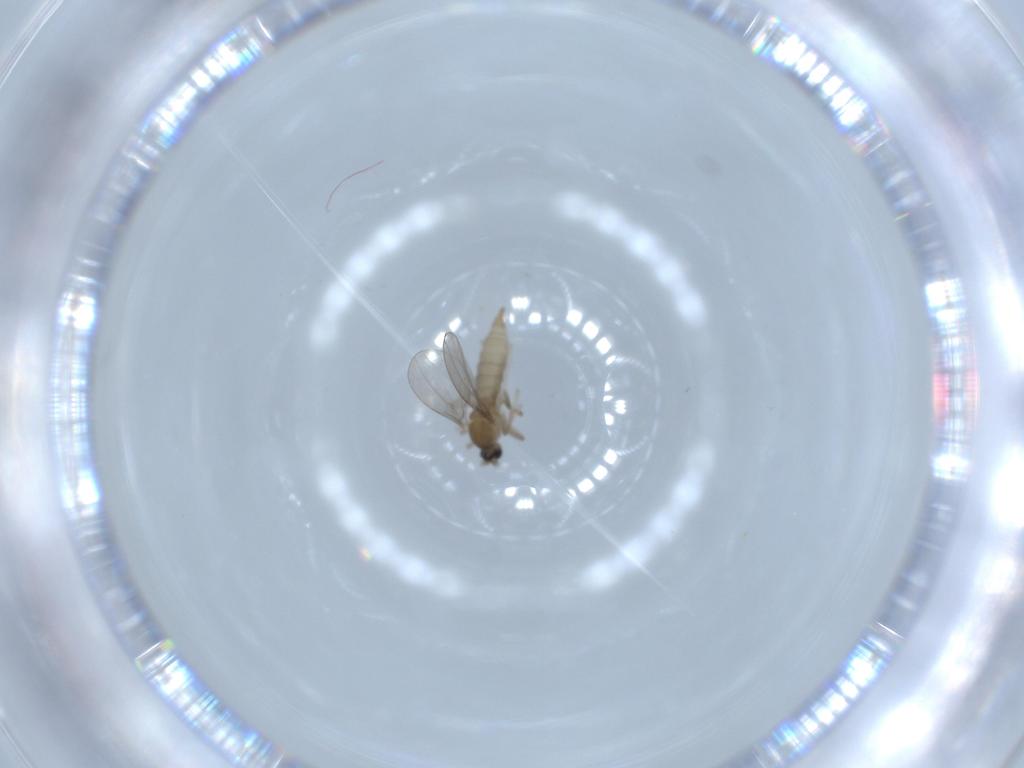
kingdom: Animalia
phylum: Arthropoda
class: Insecta
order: Diptera
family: Cecidomyiidae
